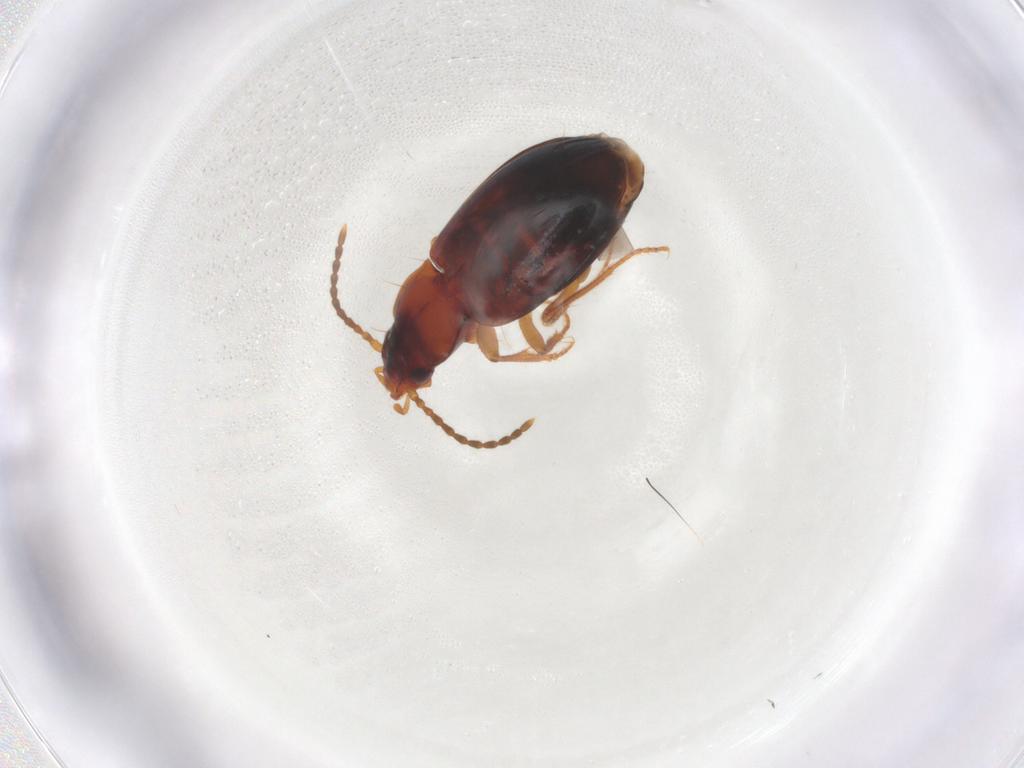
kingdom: Animalia
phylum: Arthropoda
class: Insecta
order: Coleoptera
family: Carabidae
